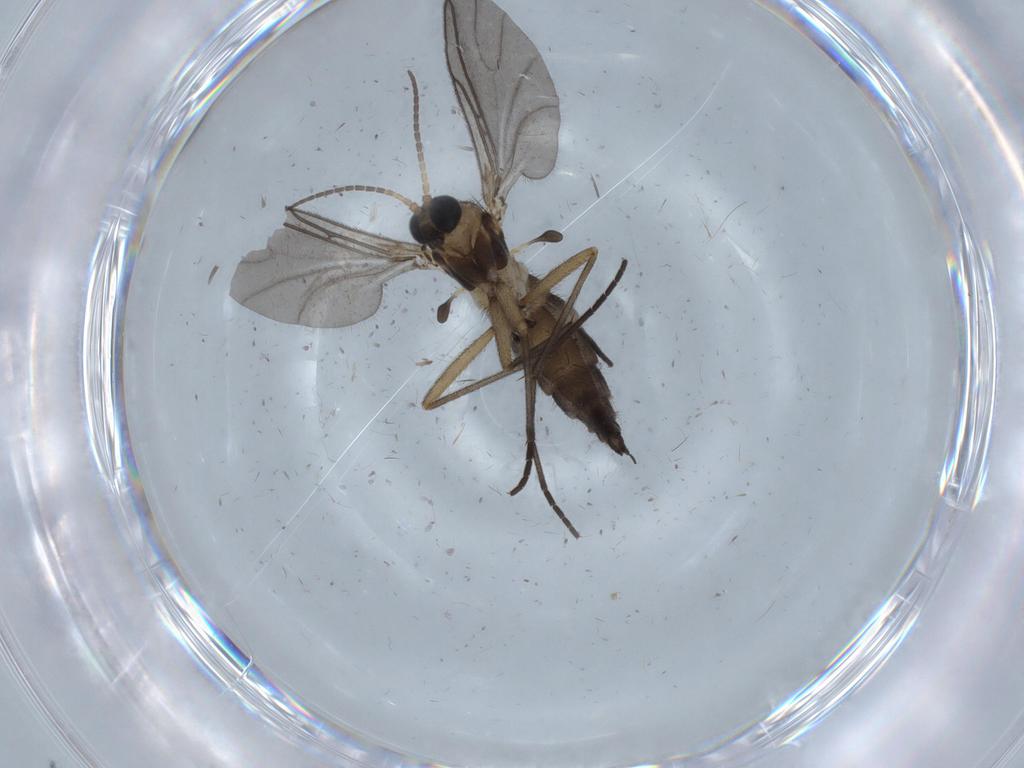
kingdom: Animalia
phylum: Arthropoda
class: Insecta
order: Diptera
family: Sciaridae
